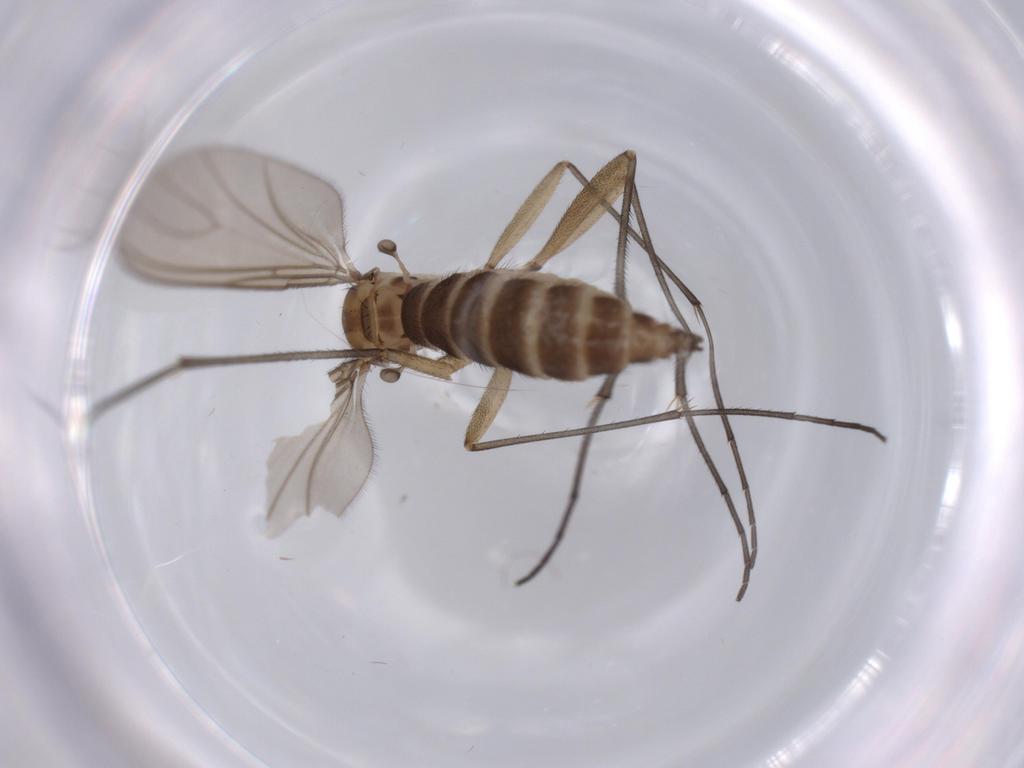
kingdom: Animalia
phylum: Arthropoda
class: Insecta
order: Diptera
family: Sciaridae
